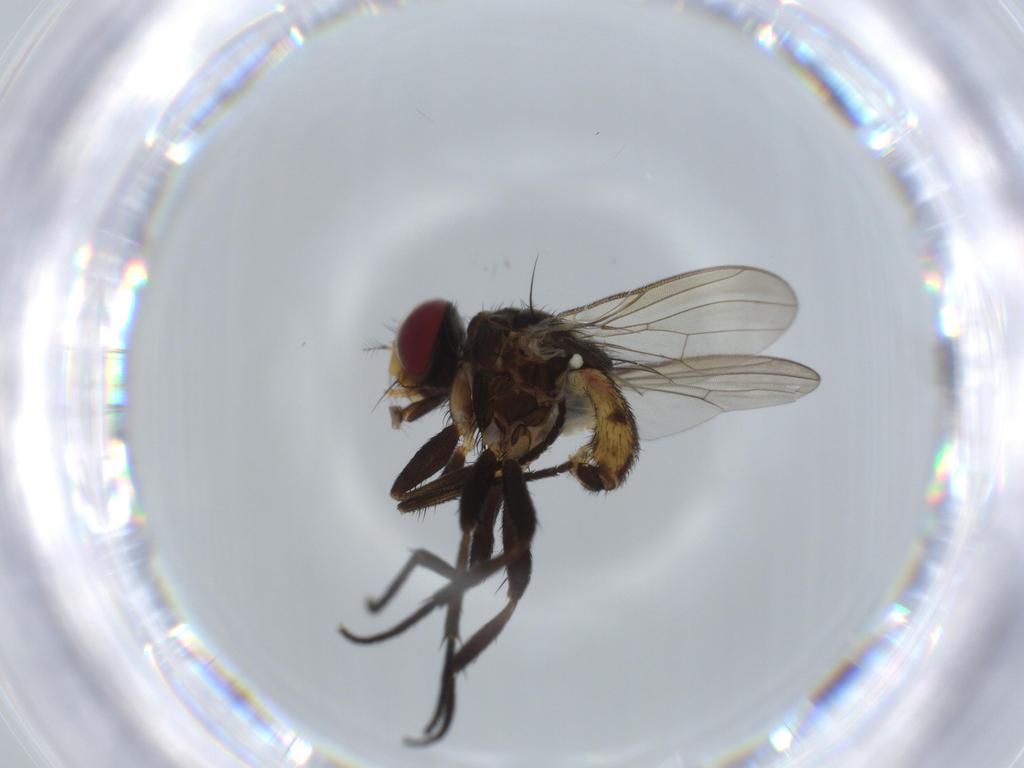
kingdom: Animalia
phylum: Arthropoda
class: Insecta
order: Diptera
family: Anthomyiidae
